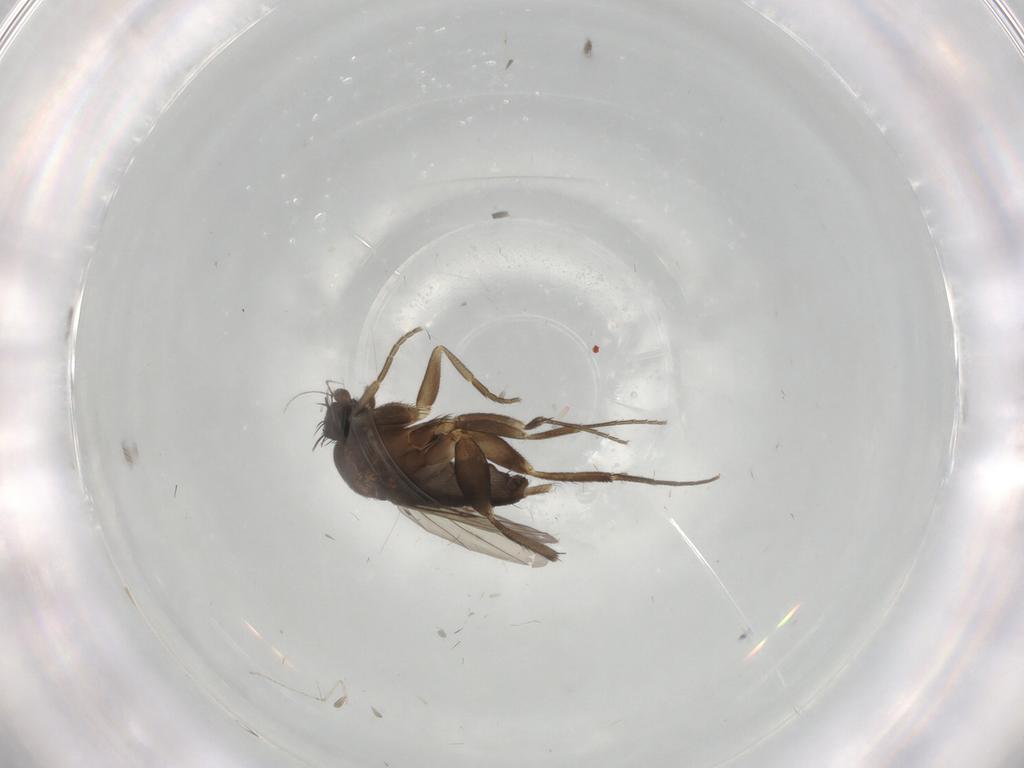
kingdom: Animalia
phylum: Arthropoda
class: Insecta
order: Diptera
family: Phoridae
